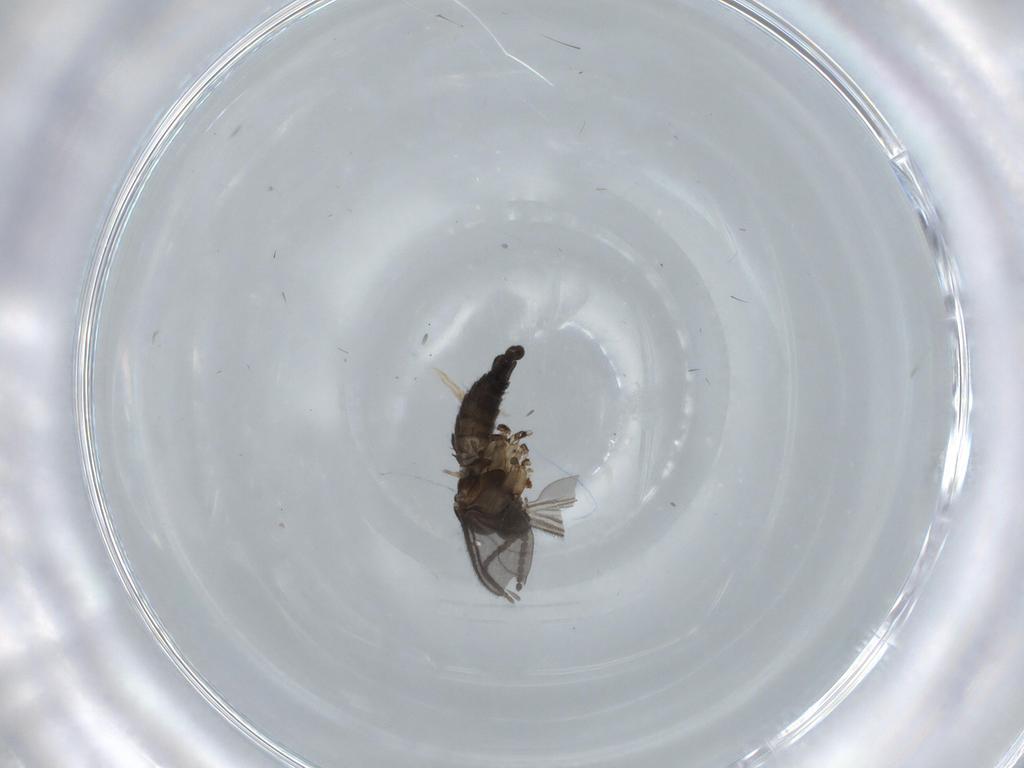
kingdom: Animalia
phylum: Arthropoda
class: Insecta
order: Diptera
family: Sciaridae
